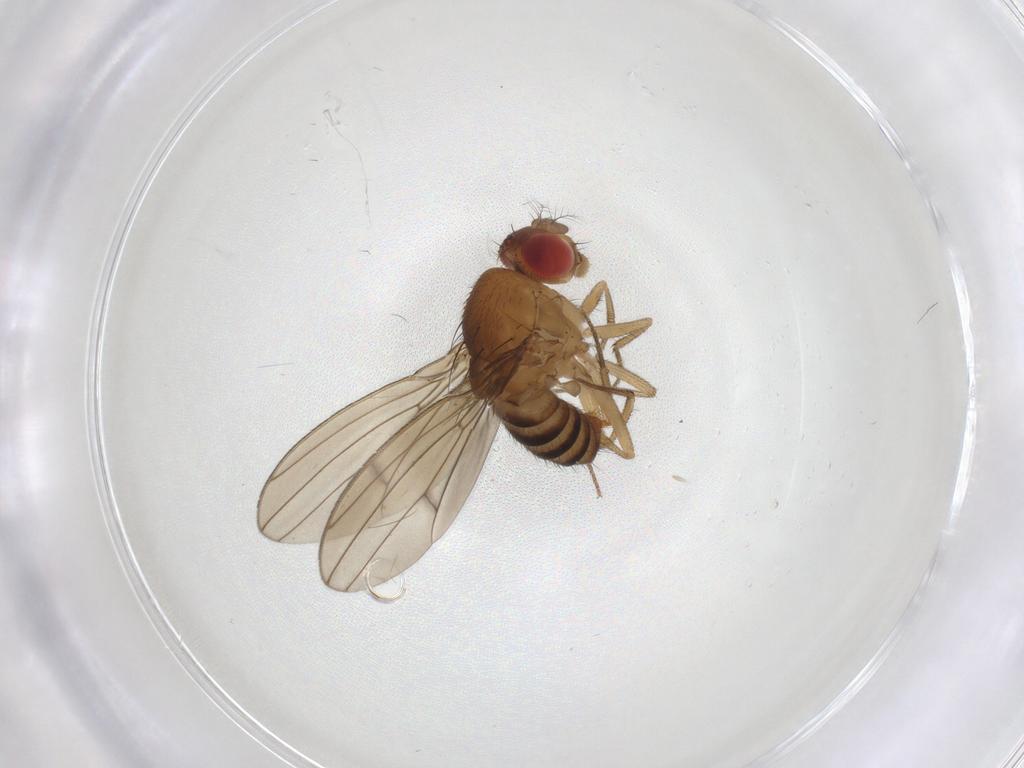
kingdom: Animalia
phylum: Arthropoda
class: Insecta
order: Diptera
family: Drosophilidae
